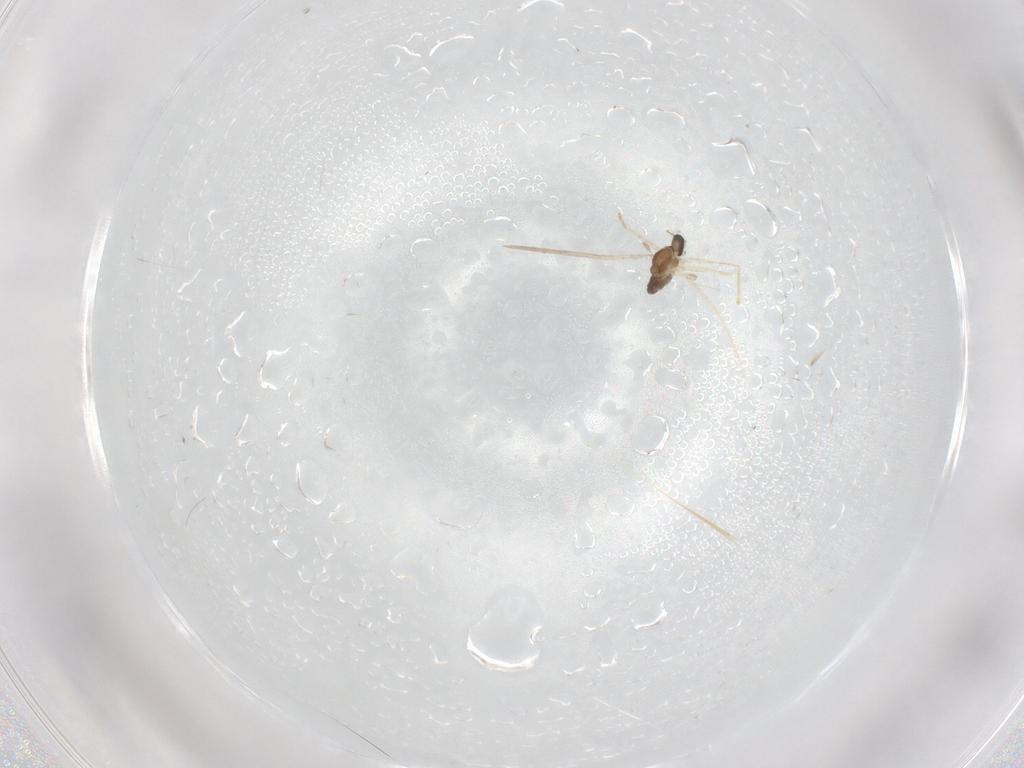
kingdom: Animalia
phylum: Arthropoda
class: Insecta
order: Diptera
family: Cecidomyiidae
